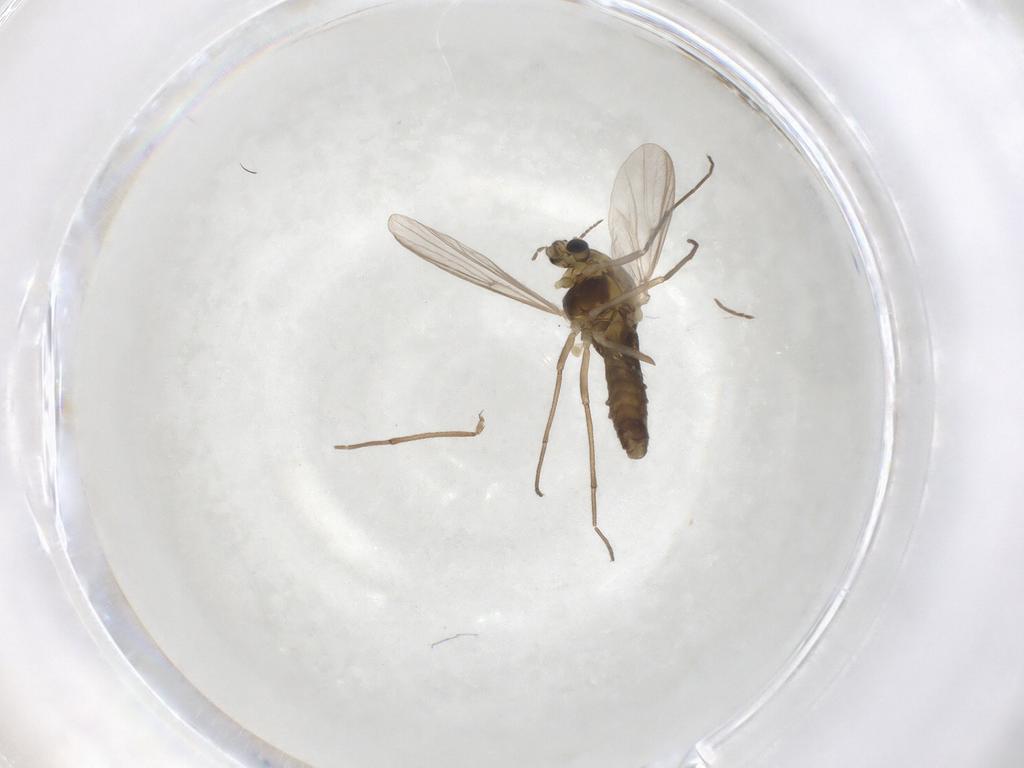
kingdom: Animalia
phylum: Arthropoda
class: Insecta
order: Diptera
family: Chironomidae
